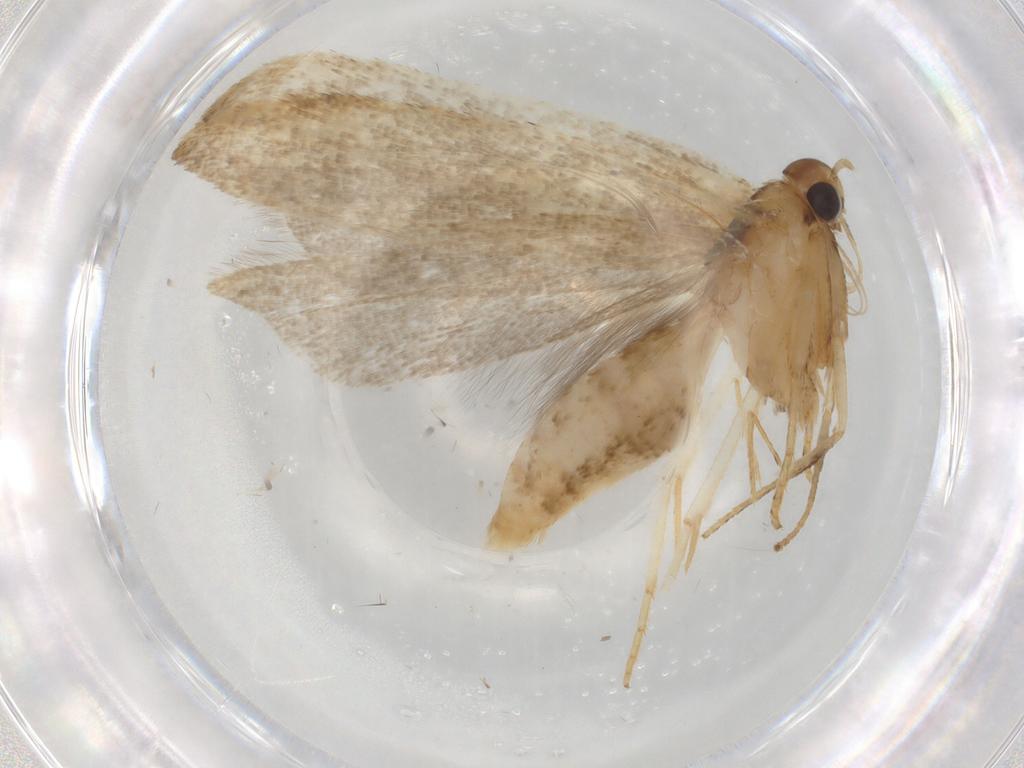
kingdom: Animalia
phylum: Arthropoda
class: Insecta
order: Lepidoptera
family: Gelechiidae
